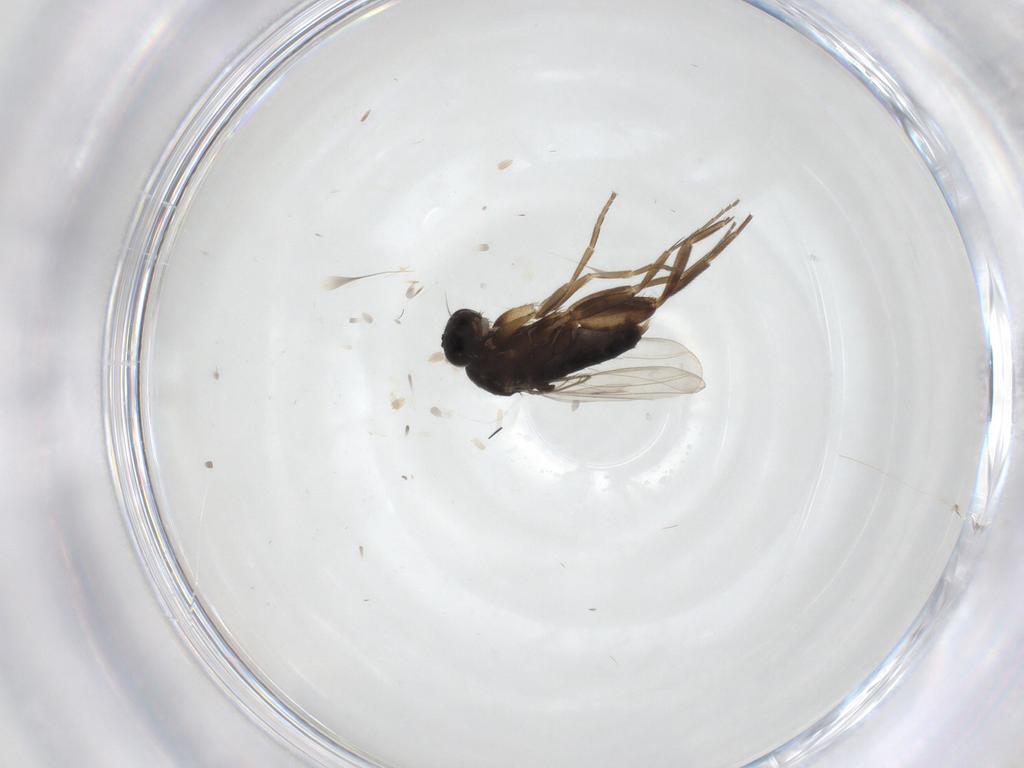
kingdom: Animalia
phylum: Arthropoda
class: Insecta
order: Diptera
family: Phoridae
